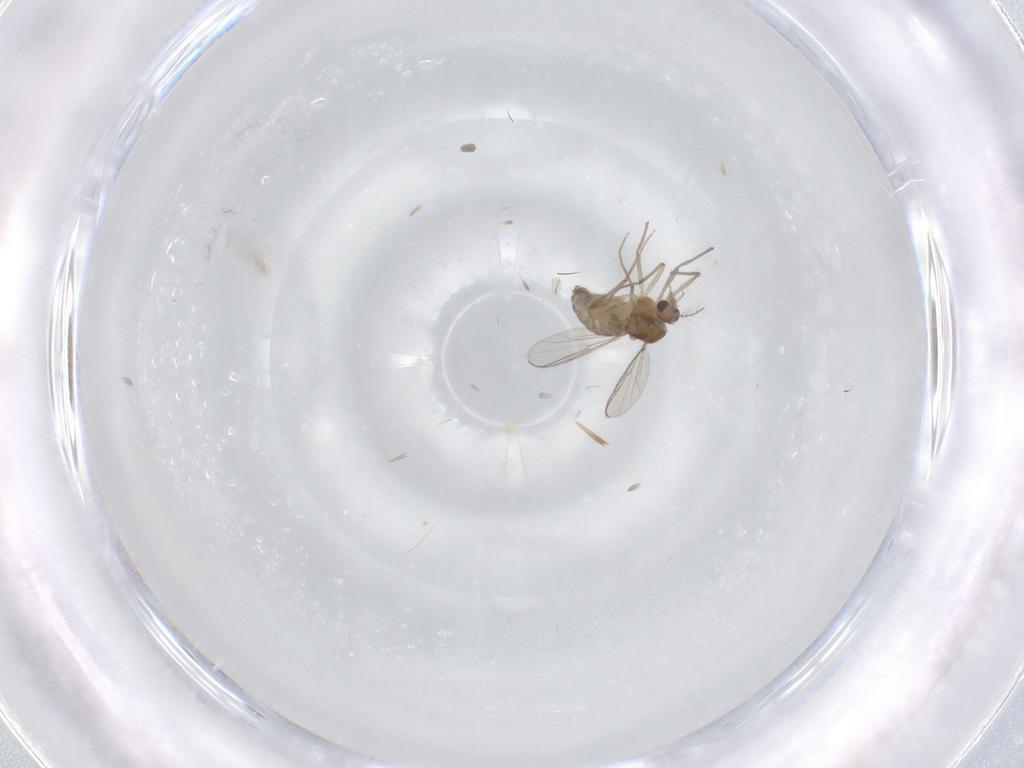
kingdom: Animalia
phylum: Arthropoda
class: Insecta
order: Diptera
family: Chironomidae
